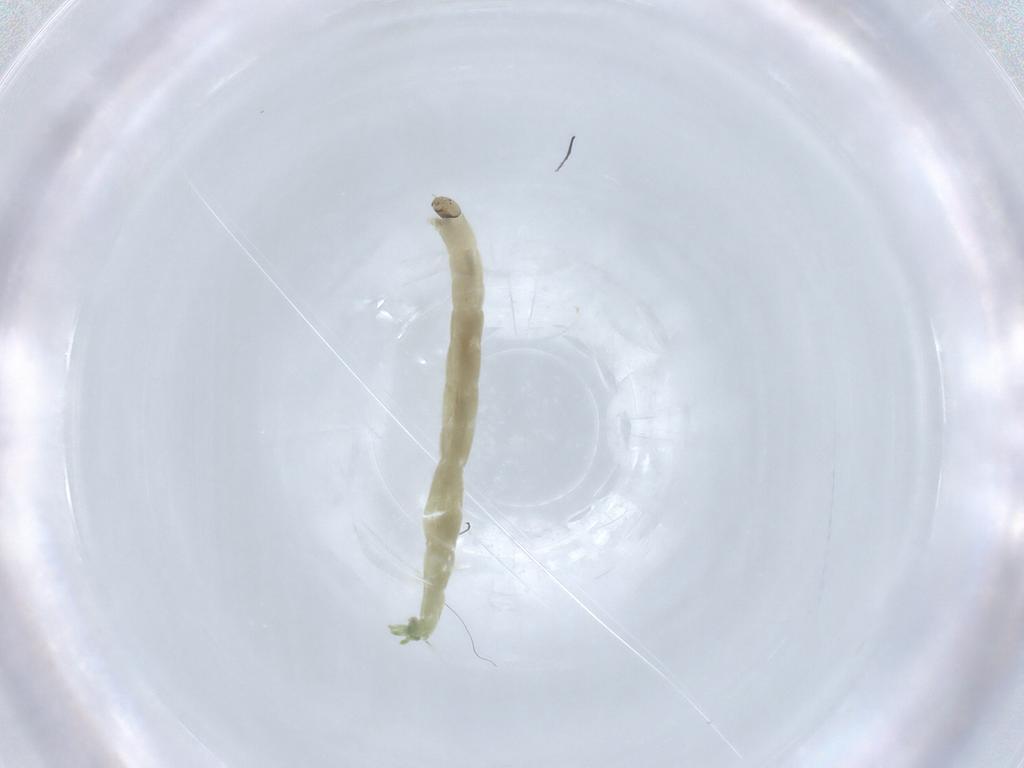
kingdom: Animalia
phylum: Arthropoda
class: Insecta
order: Diptera
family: Chironomidae
